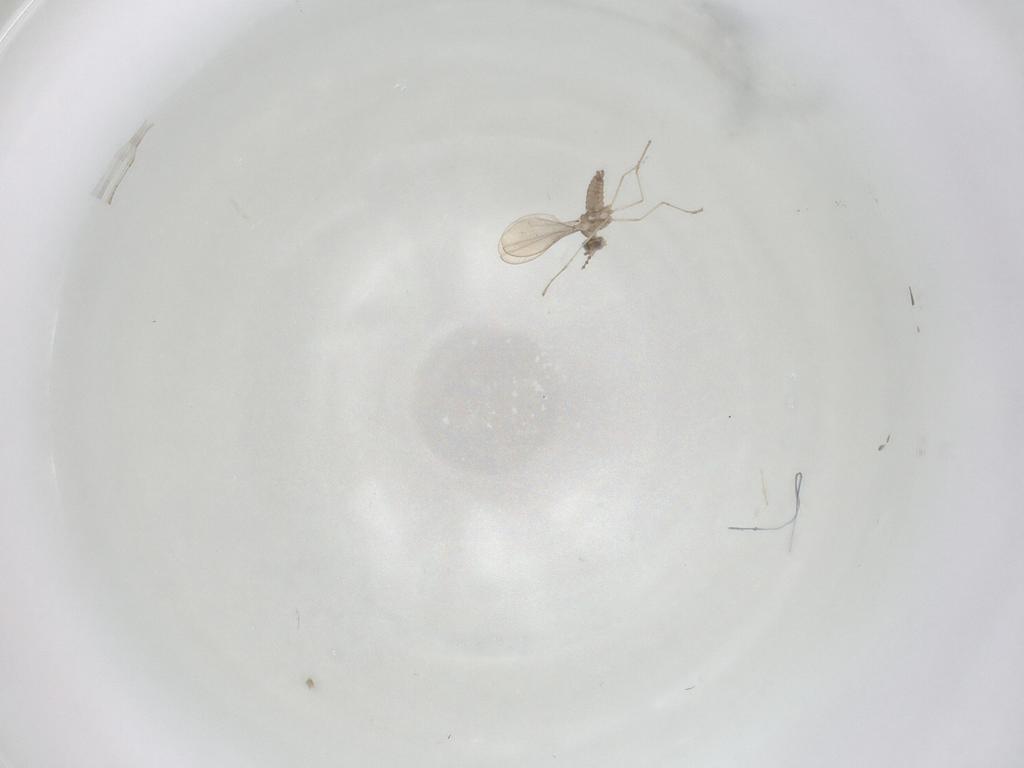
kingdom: Animalia
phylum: Arthropoda
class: Insecta
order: Diptera
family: Cecidomyiidae
